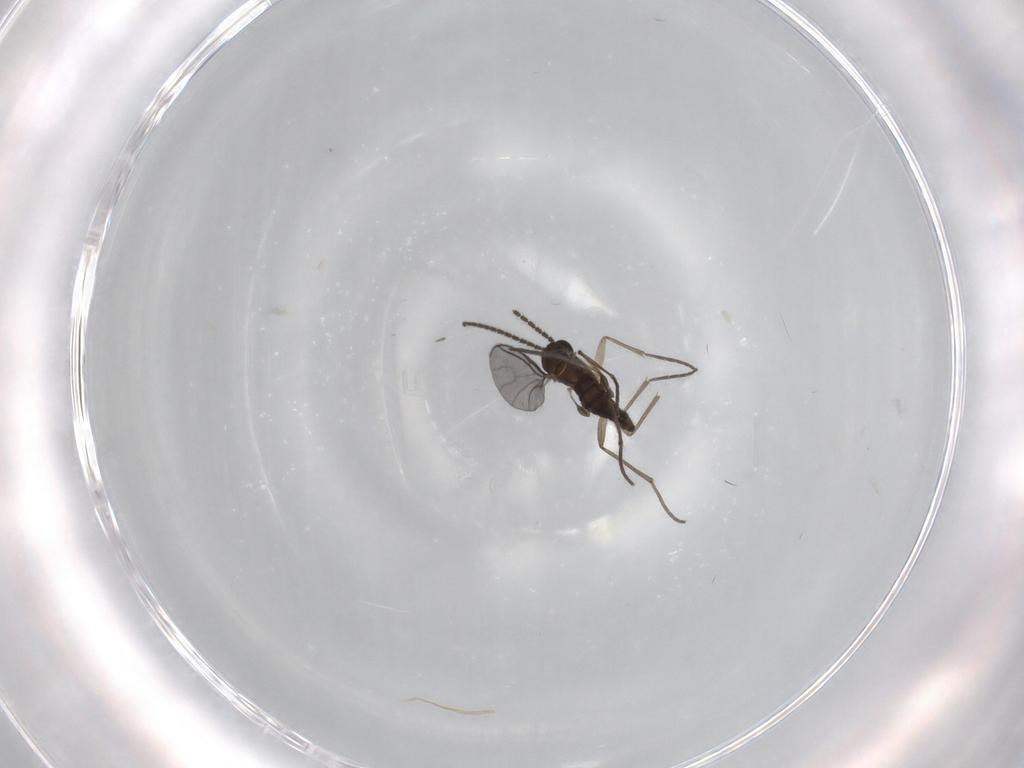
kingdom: Animalia
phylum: Arthropoda
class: Insecta
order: Diptera
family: Sciaridae
